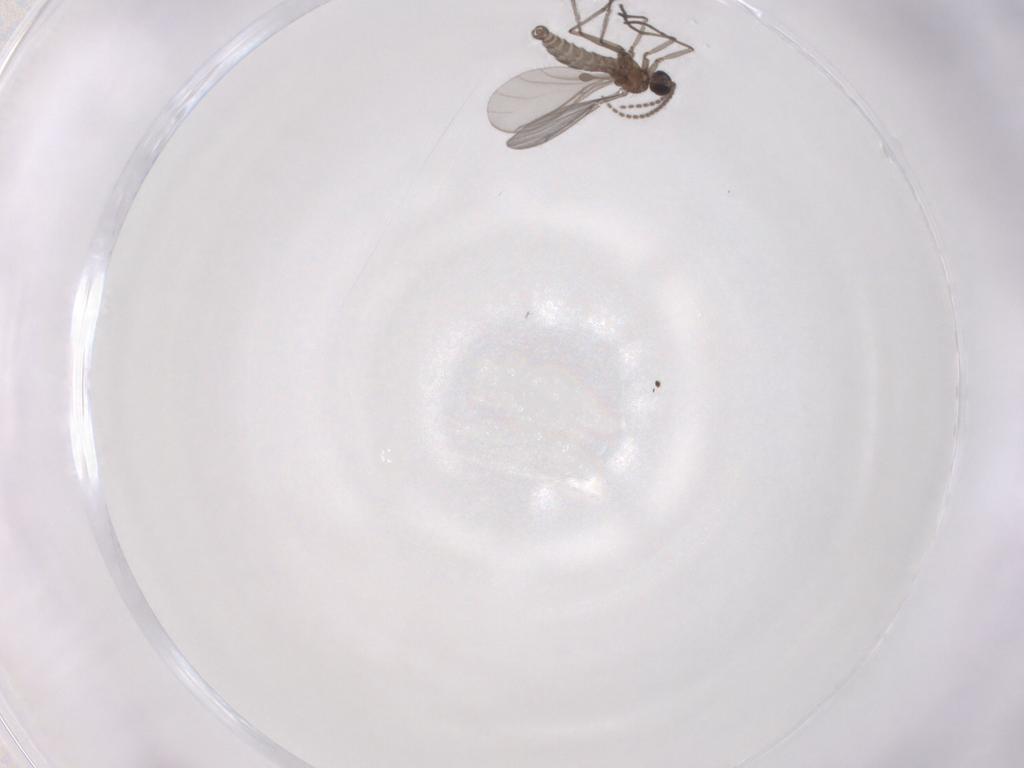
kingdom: Animalia
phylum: Arthropoda
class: Insecta
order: Diptera
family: Sciaridae
